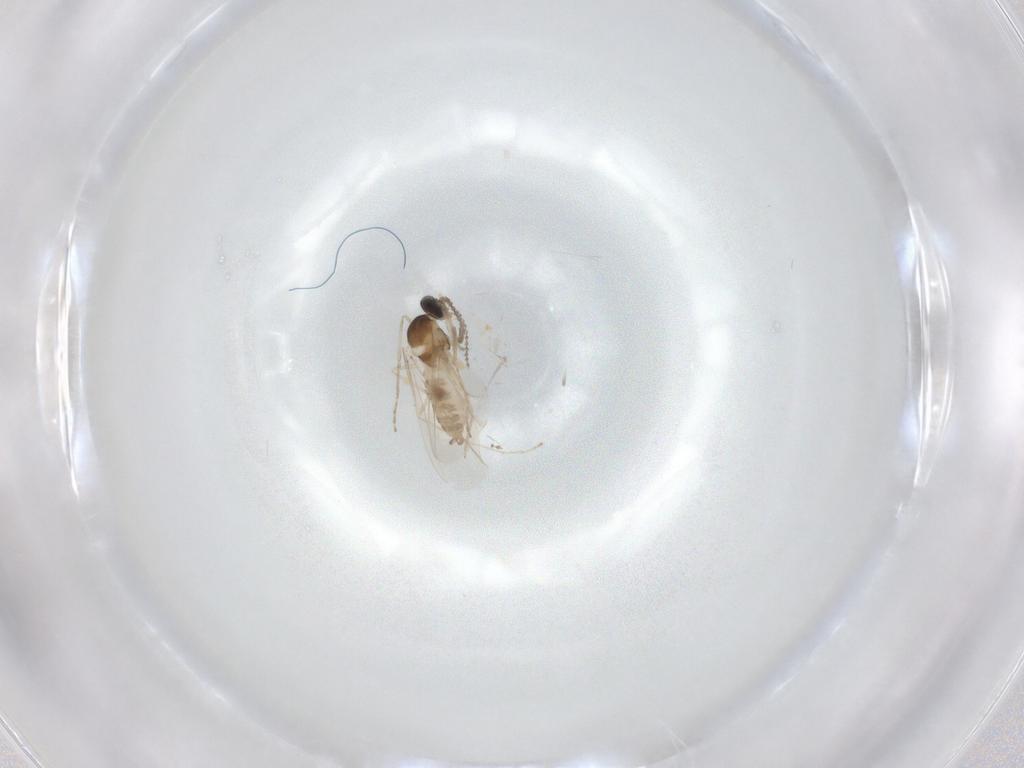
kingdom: Animalia
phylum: Arthropoda
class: Insecta
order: Diptera
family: Cecidomyiidae
